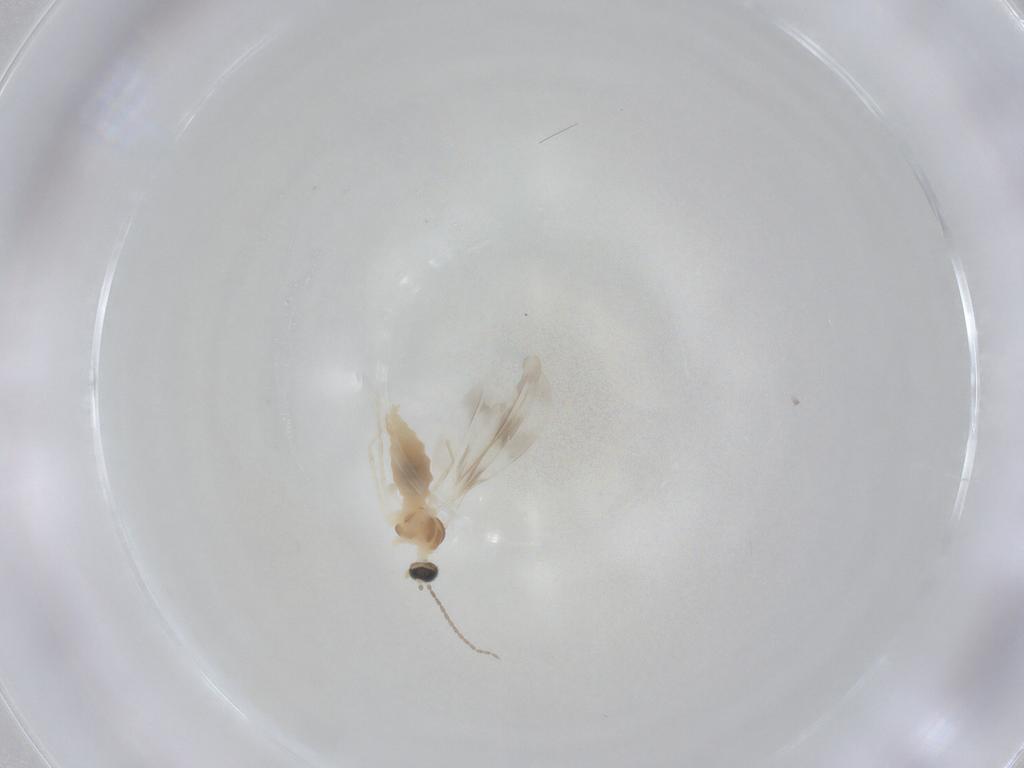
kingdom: Animalia
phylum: Arthropoda
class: Insecta
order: Diptera
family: Cecidomyiidae
